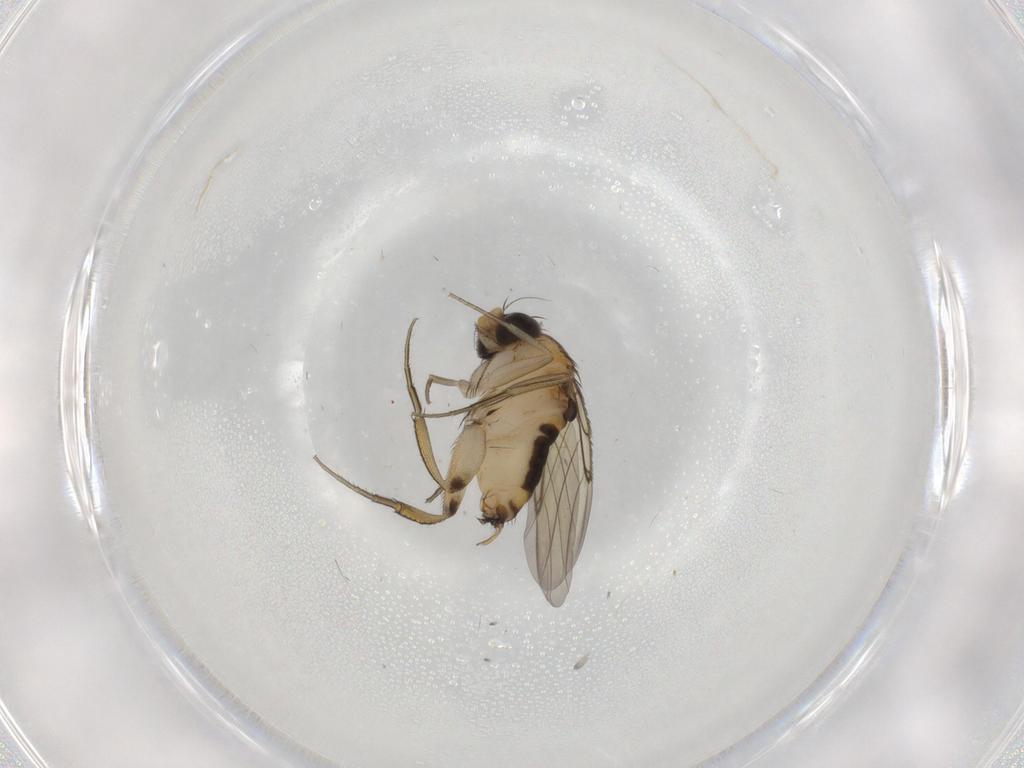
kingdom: Animalia
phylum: Arthropoda
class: Insecta
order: Diptera
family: Phoridae
